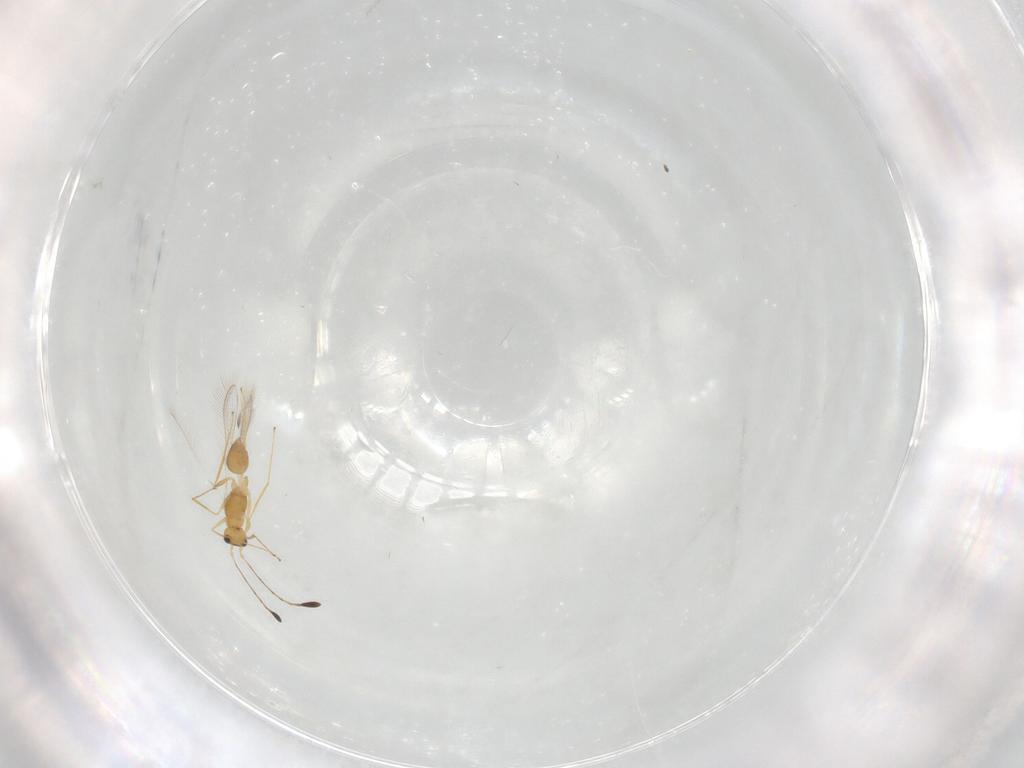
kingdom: Animalia
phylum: Arthropoda
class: Insecta
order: Hymenoptera
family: Mymaridae
